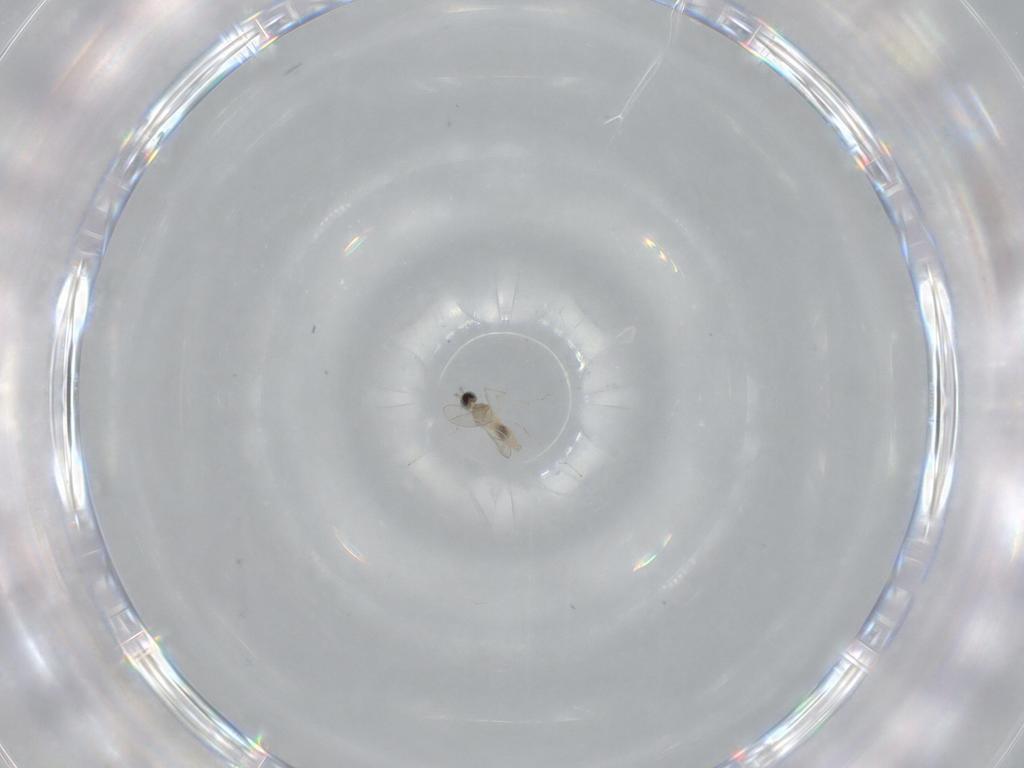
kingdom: Animalia
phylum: Arthropoda
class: Insecta
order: Diptera
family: Cecidomyiidae
